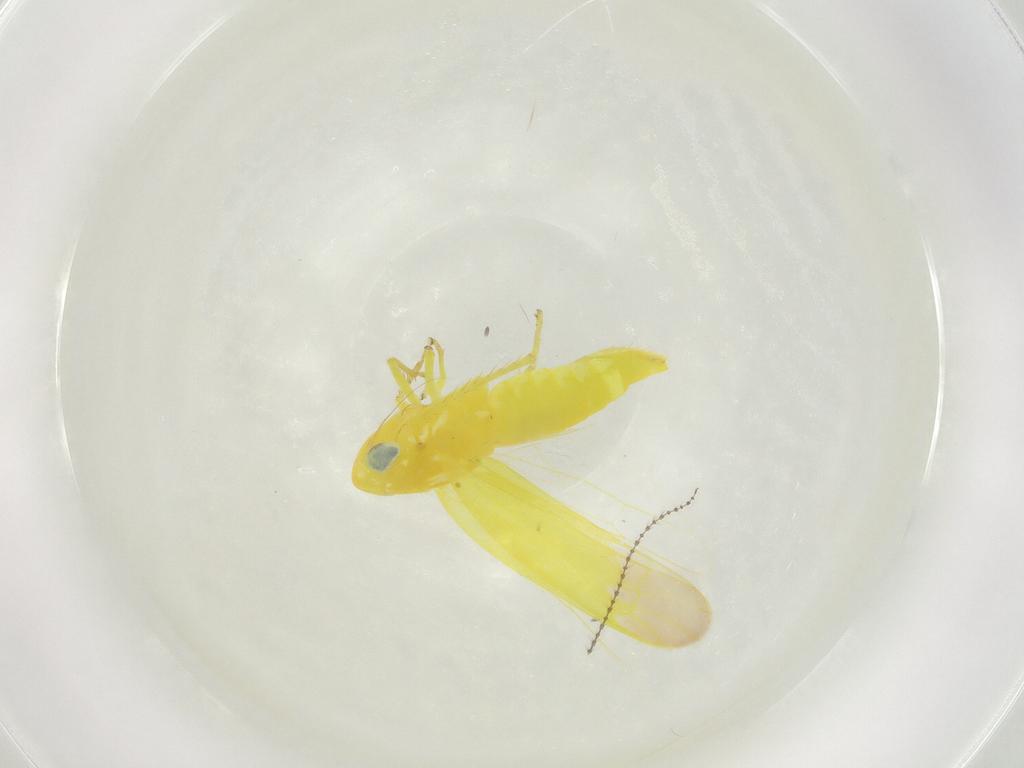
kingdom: Animalia
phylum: Arthropoda
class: Insecta
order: Hemiptera
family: Cicadellidae
